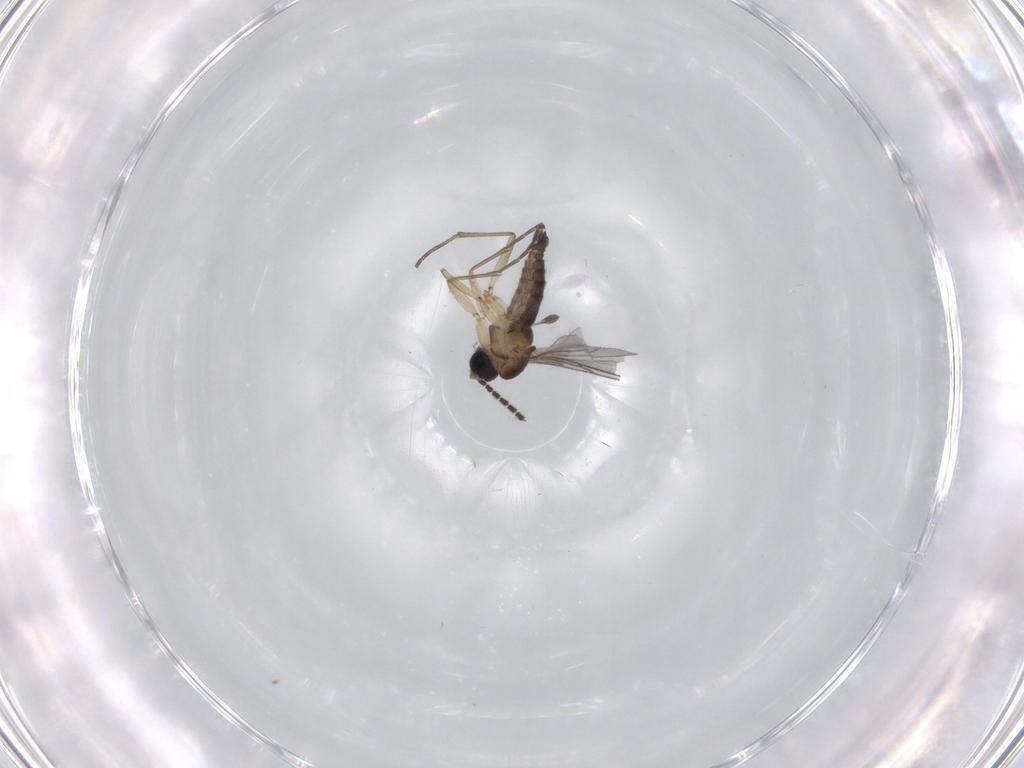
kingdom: Animalia
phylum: Arthropoda
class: Insecta
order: Diptera
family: Sciaridae
